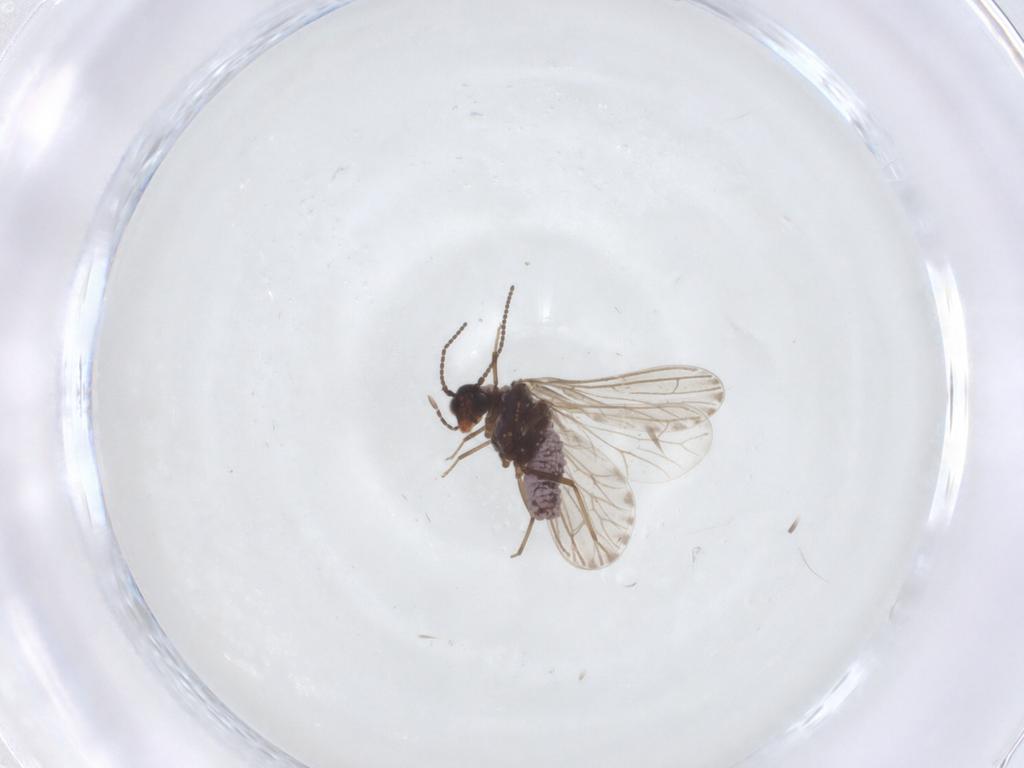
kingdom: Animalia
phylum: Arthropoda
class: Insecta
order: Neuroptera
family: Coniopterygidae
